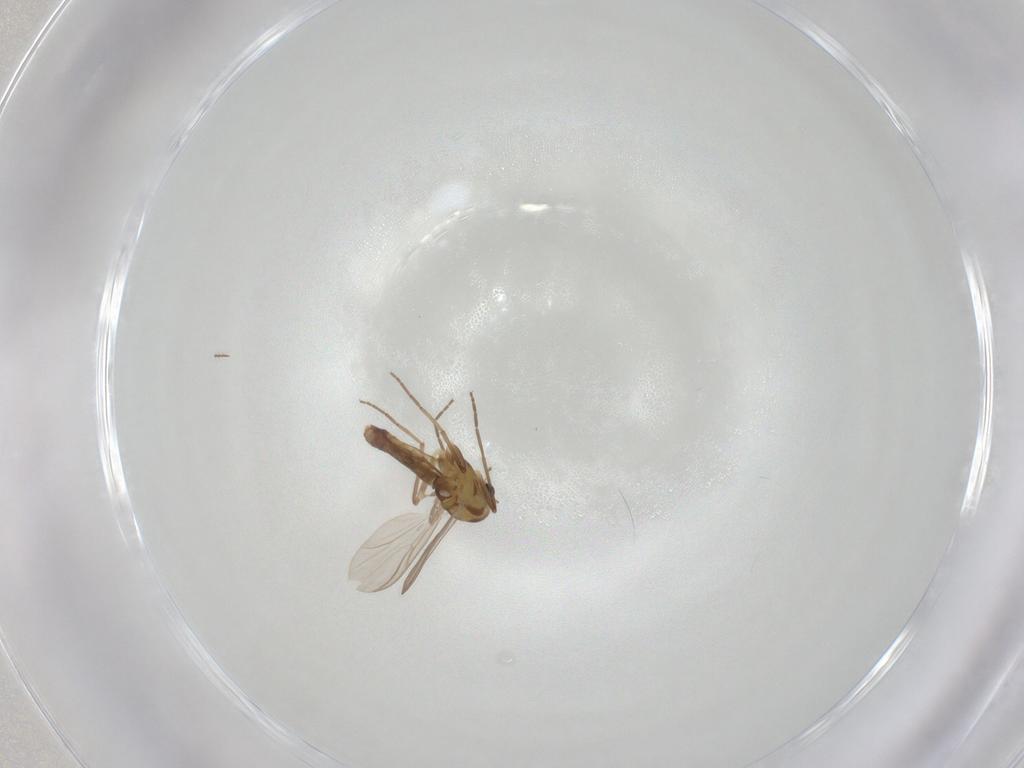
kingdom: Animalia
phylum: Arthropoda
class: Insecta
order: Diptera
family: Chironomidae
